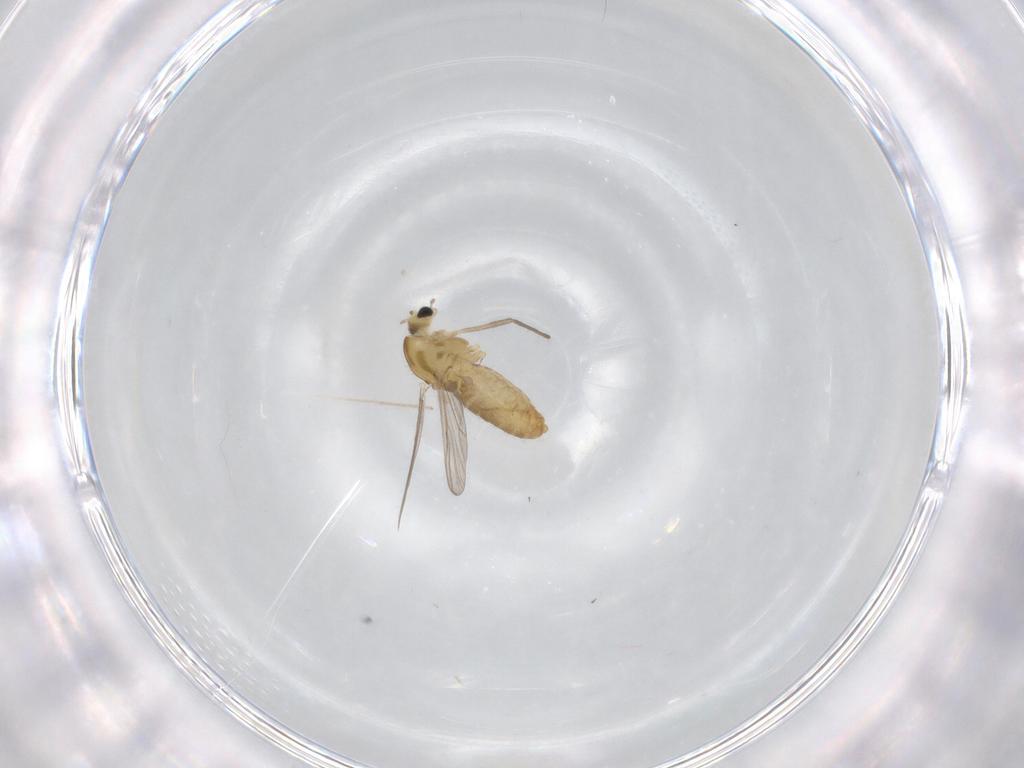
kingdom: Animalia
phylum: Arthropoda
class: Insecta
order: Diptera
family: Chironomidae
